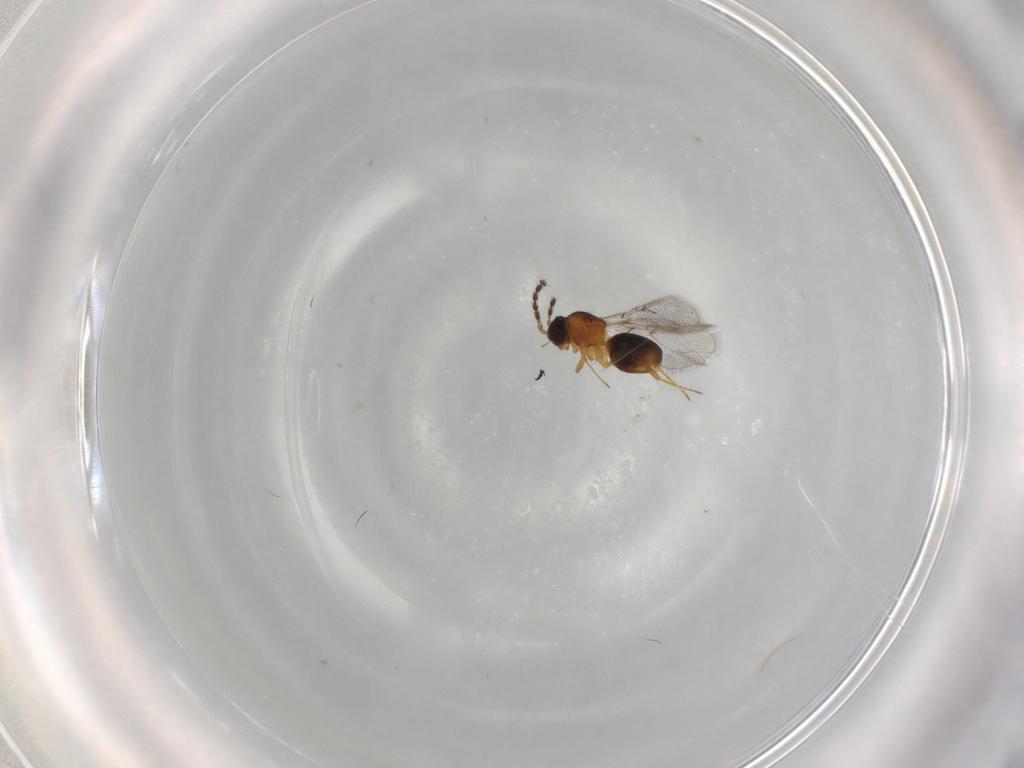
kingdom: Animalia
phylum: Arthropoda
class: Insecta
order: Hymenoptera
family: Figitidae
